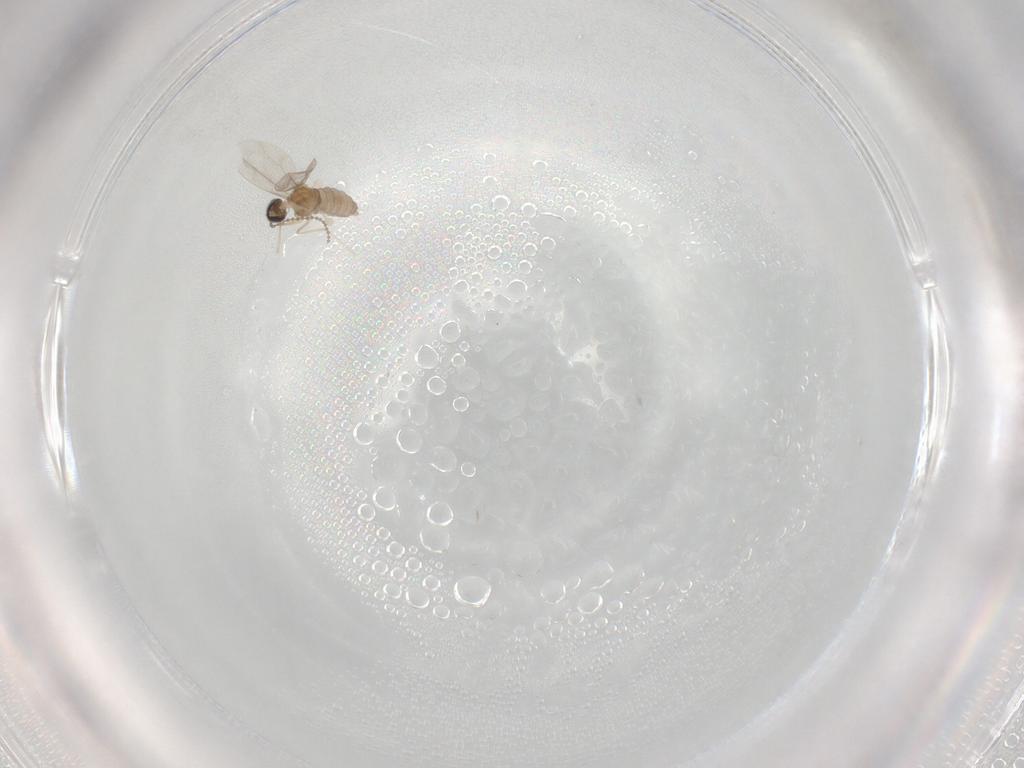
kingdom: Animalia
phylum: Arthropoda
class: Insecta
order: Diptera
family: Cecidomyiidae
